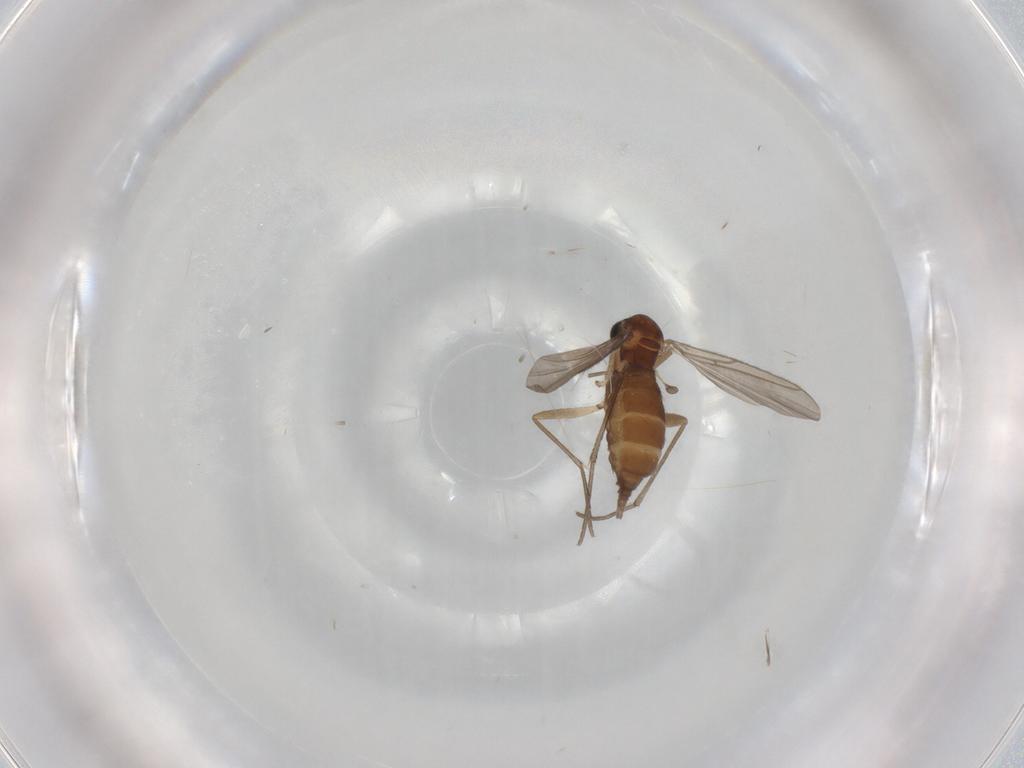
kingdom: Animalia
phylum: Arthropoda
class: Insecta
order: Diptera
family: Sciaridae
